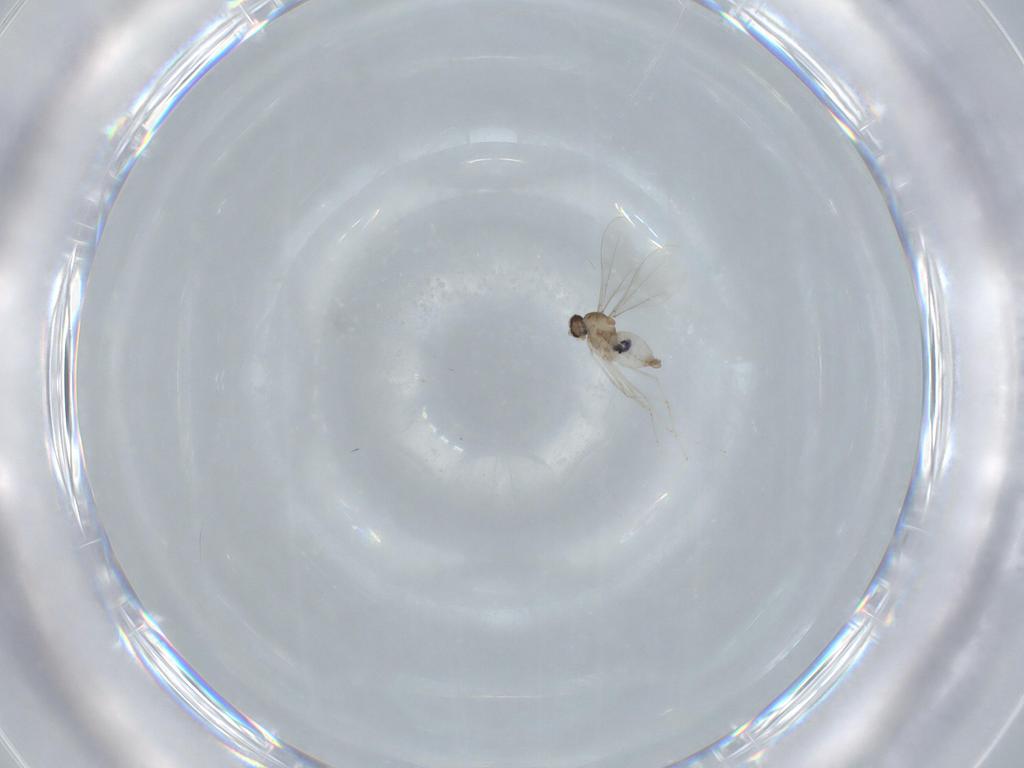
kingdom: Animalia
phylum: Arthropoda
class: Insecta
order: Diptera
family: Cecidomyiidae
